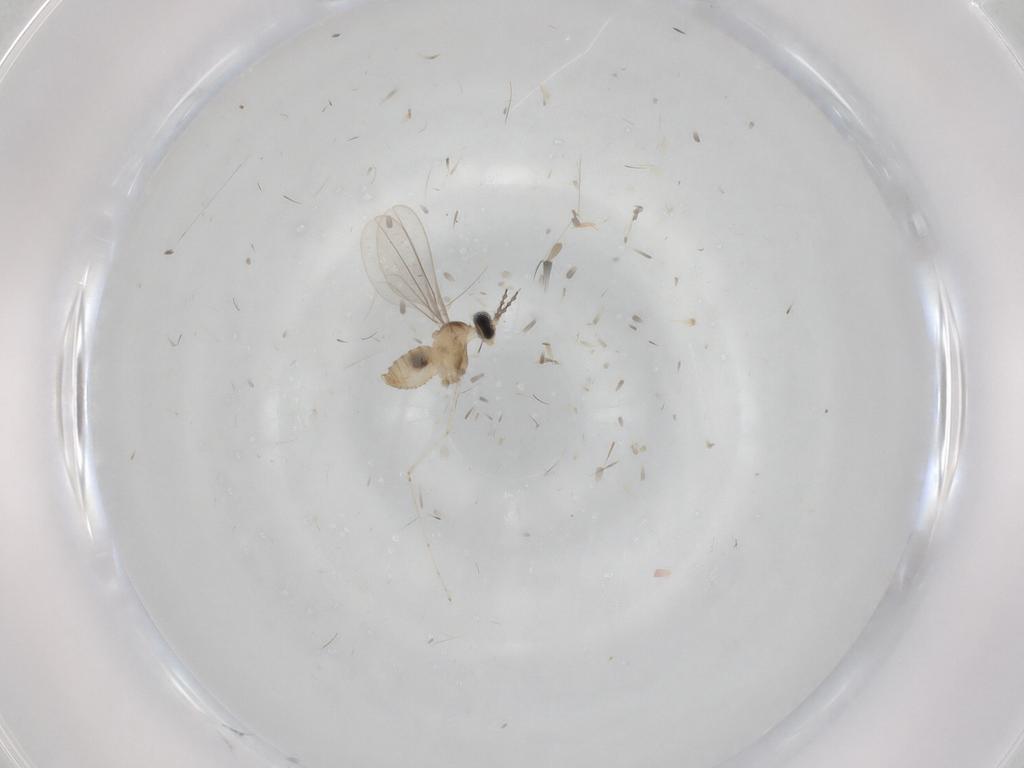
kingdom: Animalia
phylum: Arthropoda
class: Insecta
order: Diptera
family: Cecidomyiidae
